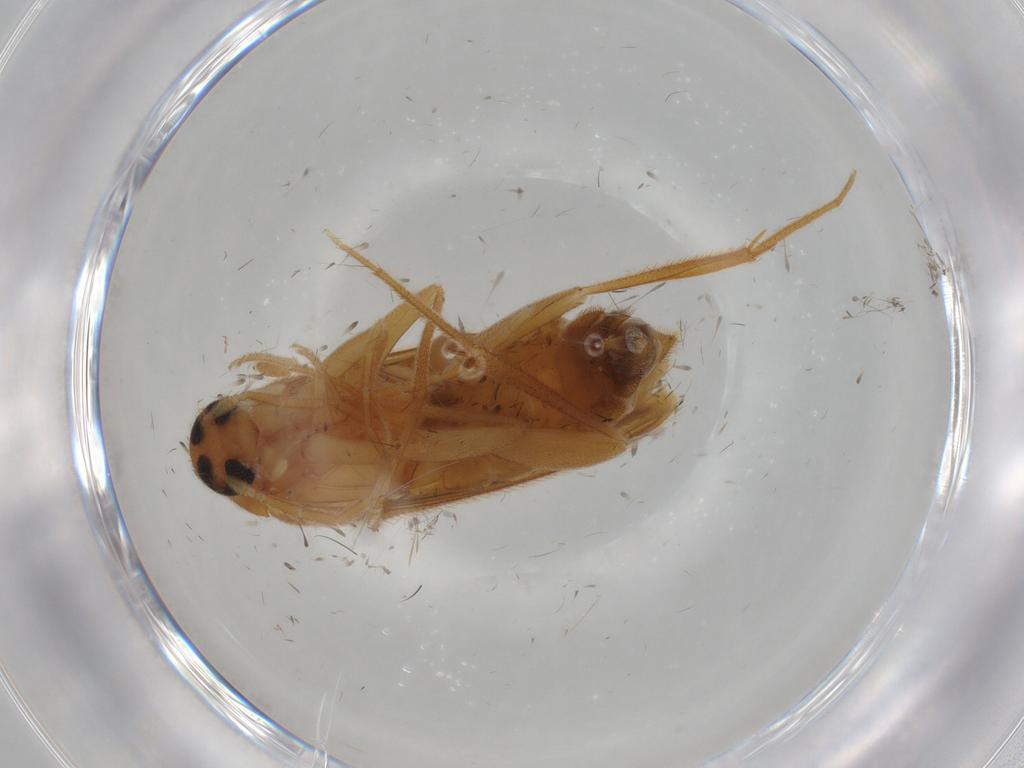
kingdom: Animalia
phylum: Arthropoda
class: Insecta
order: Coleoptera
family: Scraptiidae
